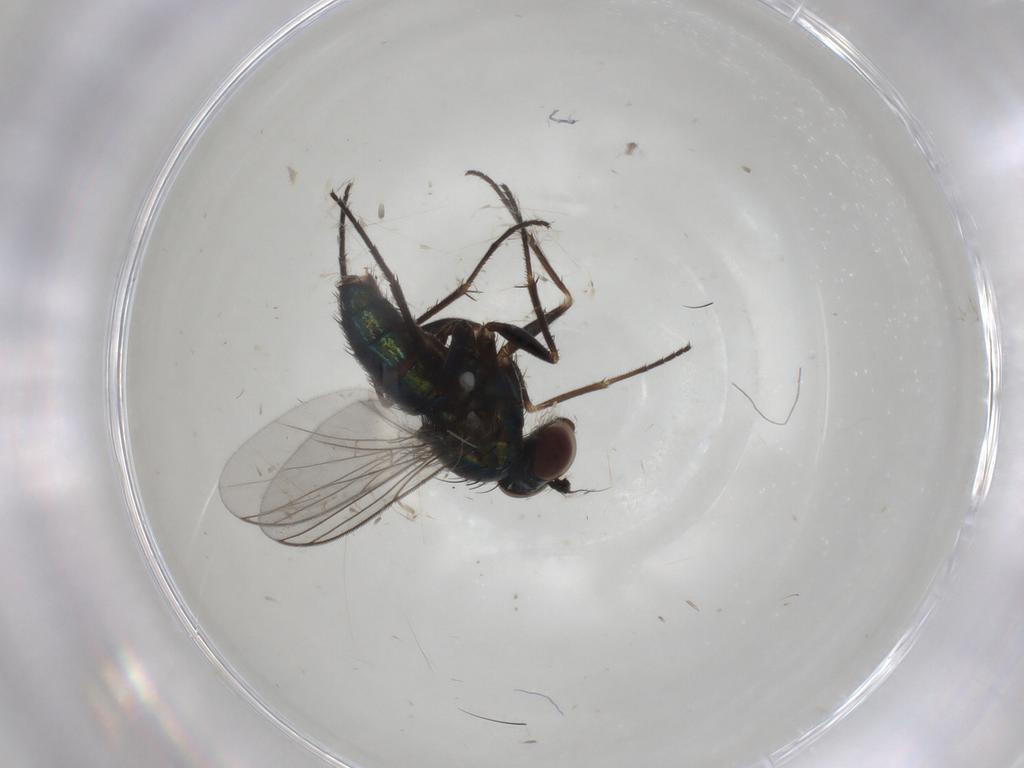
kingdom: Animalia
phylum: Arthropoda
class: Insecta
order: Diptera
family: Dolichopodidae
